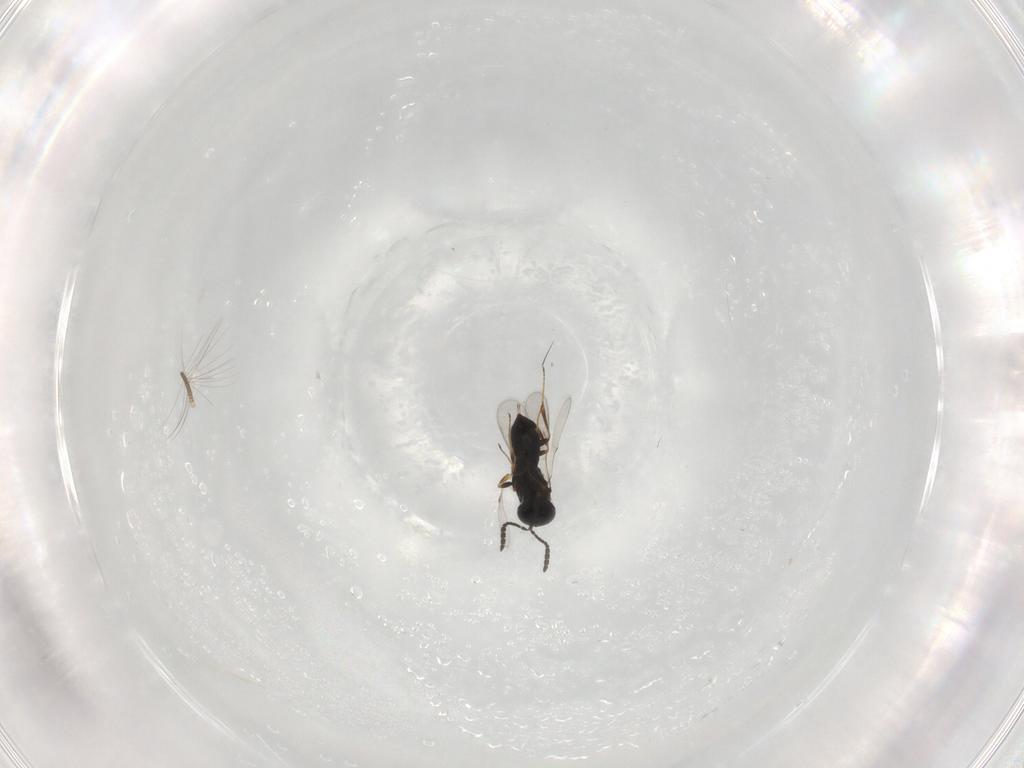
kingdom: Animalia
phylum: Arthropoda
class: Insecta
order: Hymenoptera
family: Scelionidae
